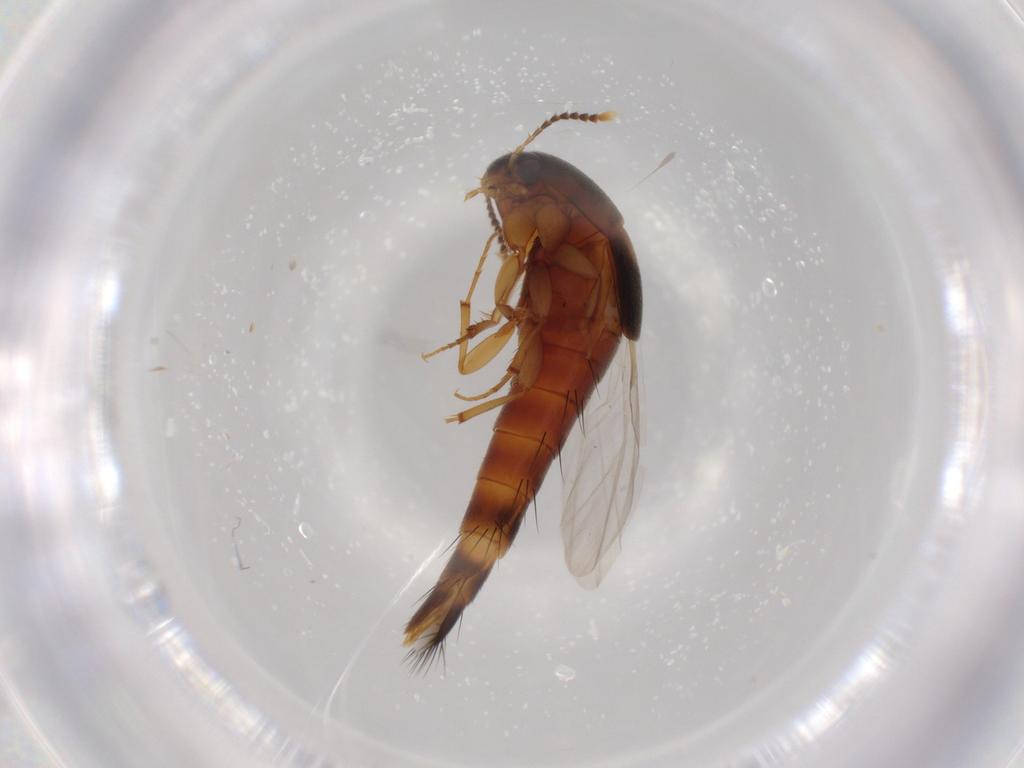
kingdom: Animalia
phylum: Arthropoda
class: Insecta
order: Coleoptera
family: Staphylinidae
